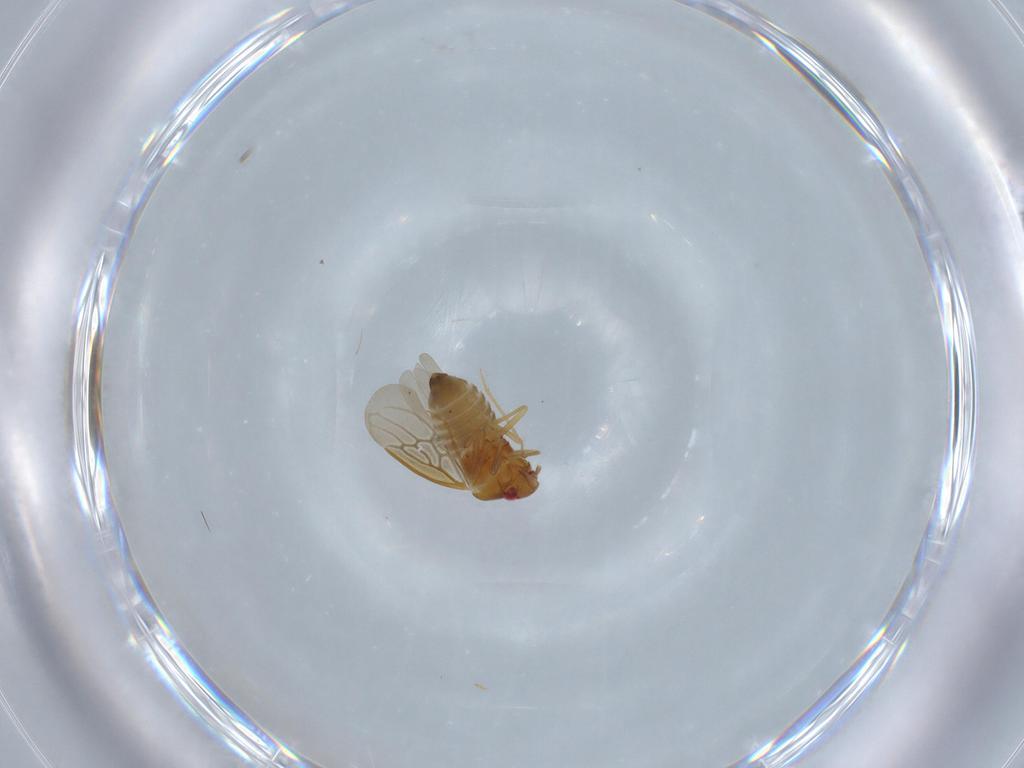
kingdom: Animalia
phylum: Arthropoda
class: Insecta
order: Hemiptera
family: Schizopteridae
